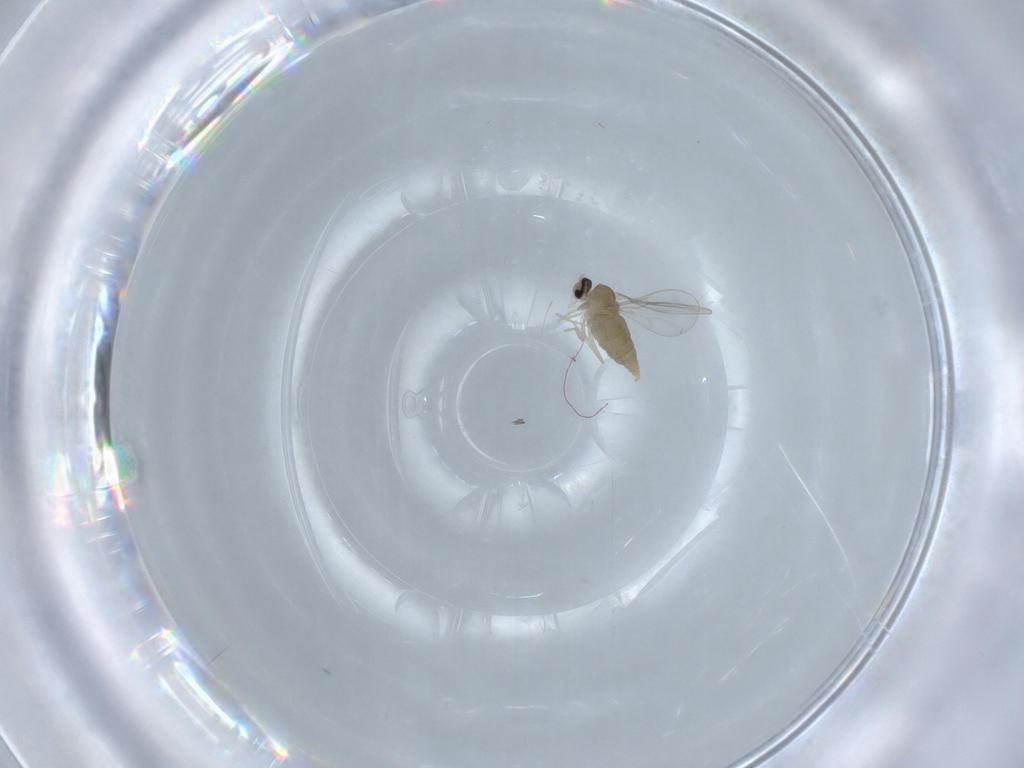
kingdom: Animalia
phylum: Arthropoda
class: Insecta
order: Diptera
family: Cecidomyiidae
